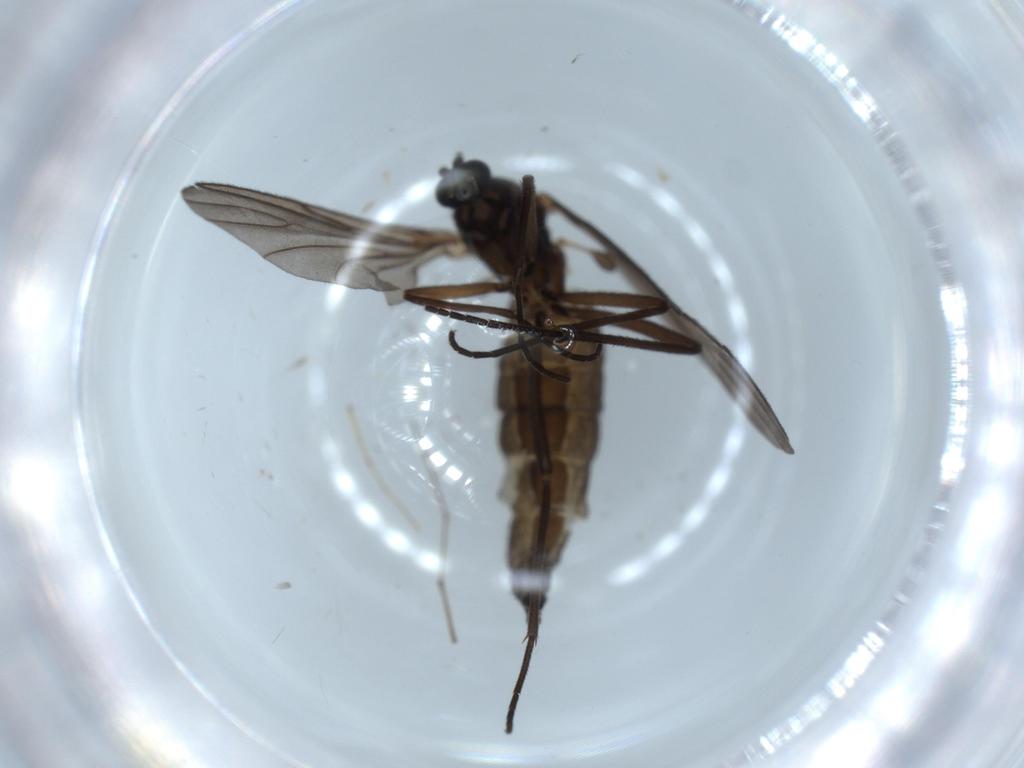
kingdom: Animalia
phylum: Arthropoda
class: Insecta
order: Diptera
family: Sciaridae
